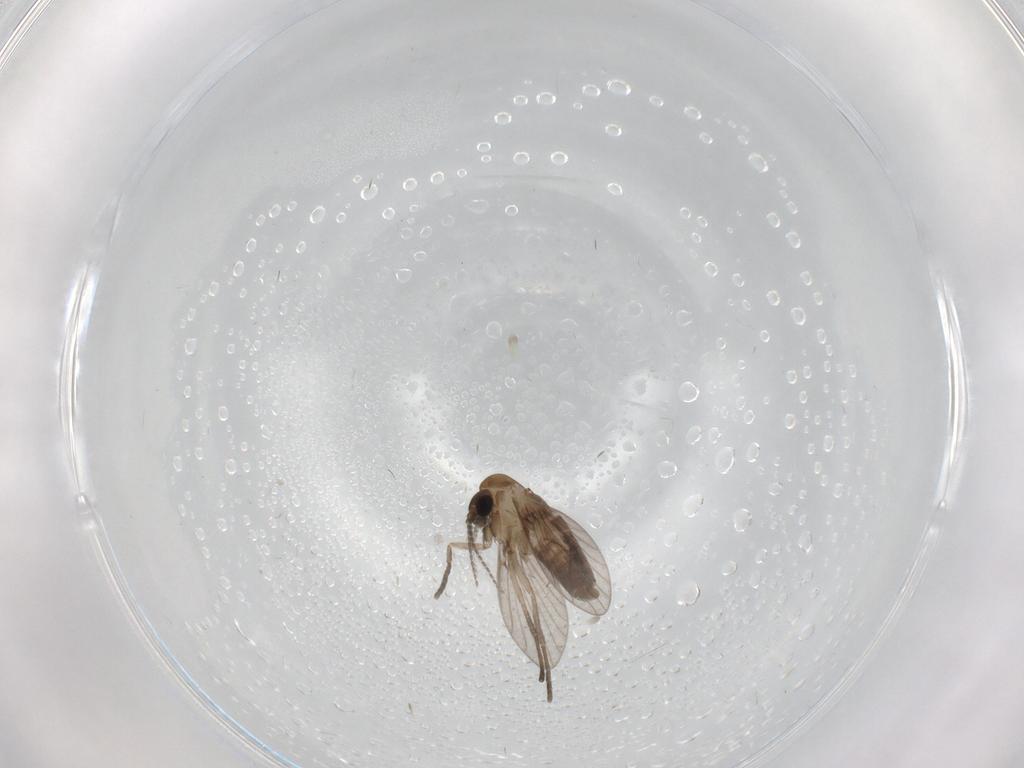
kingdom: Animalia
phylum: Arthropoda
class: Insecta
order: Diptera
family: Psychodidae
